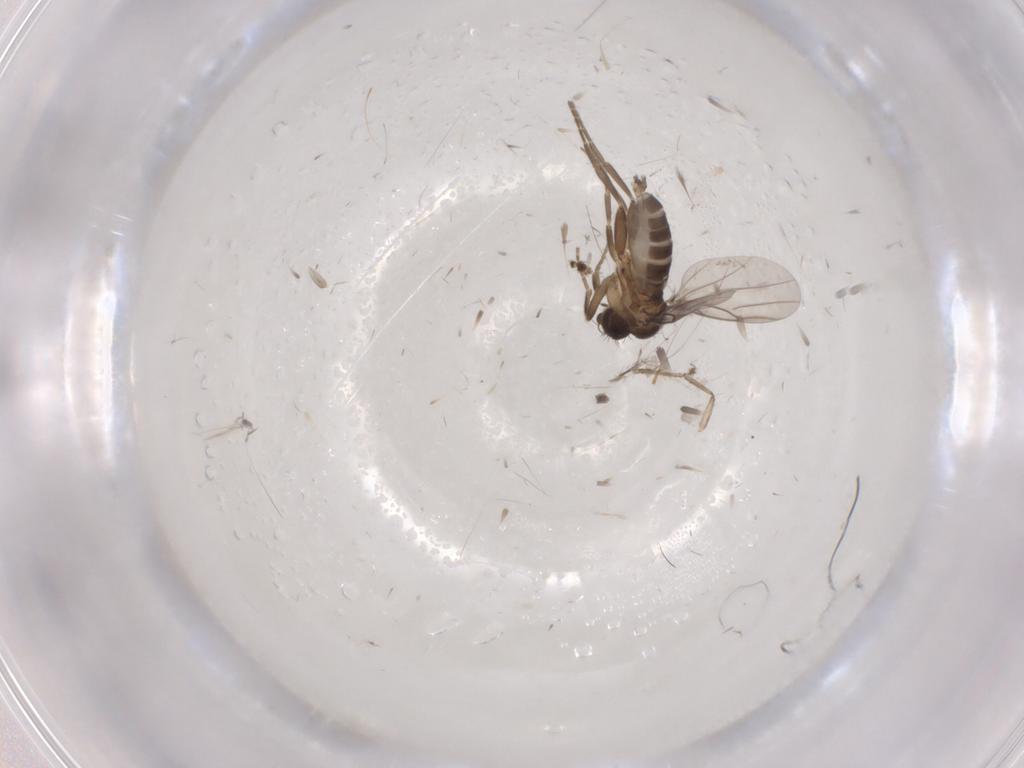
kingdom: Animalia
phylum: Arthropoda
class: Insecta
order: Diptera
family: Phoridae
